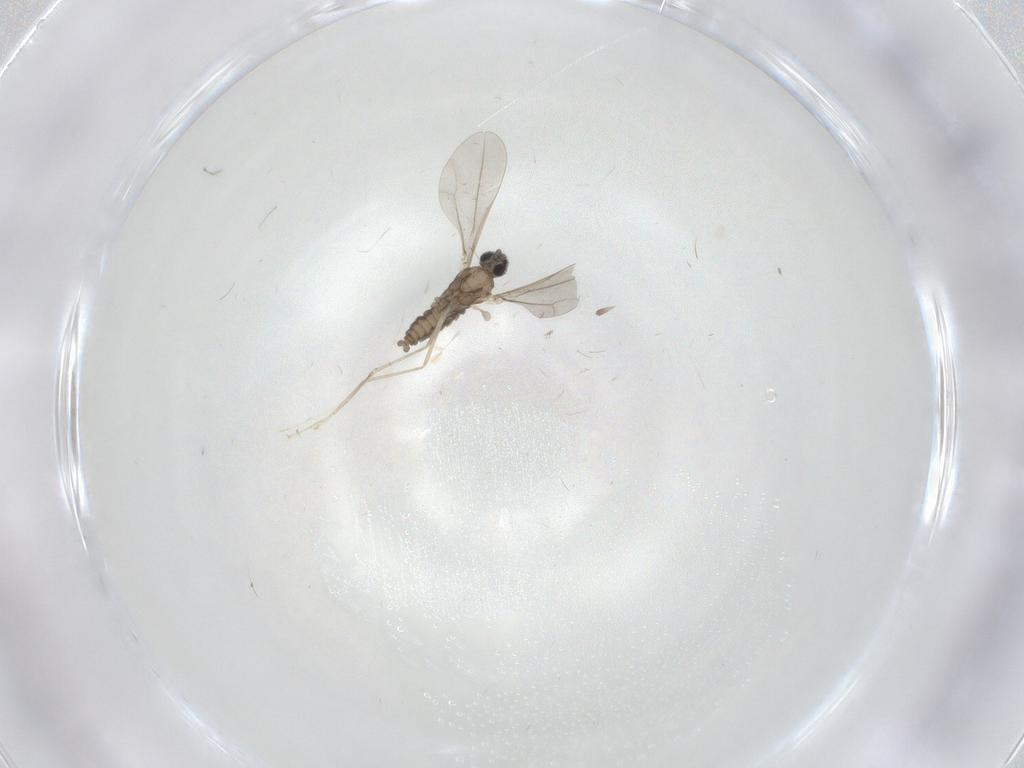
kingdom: Animalia
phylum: Arthropoda
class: Insecta
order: Diptera
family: Cecidomyiidae
